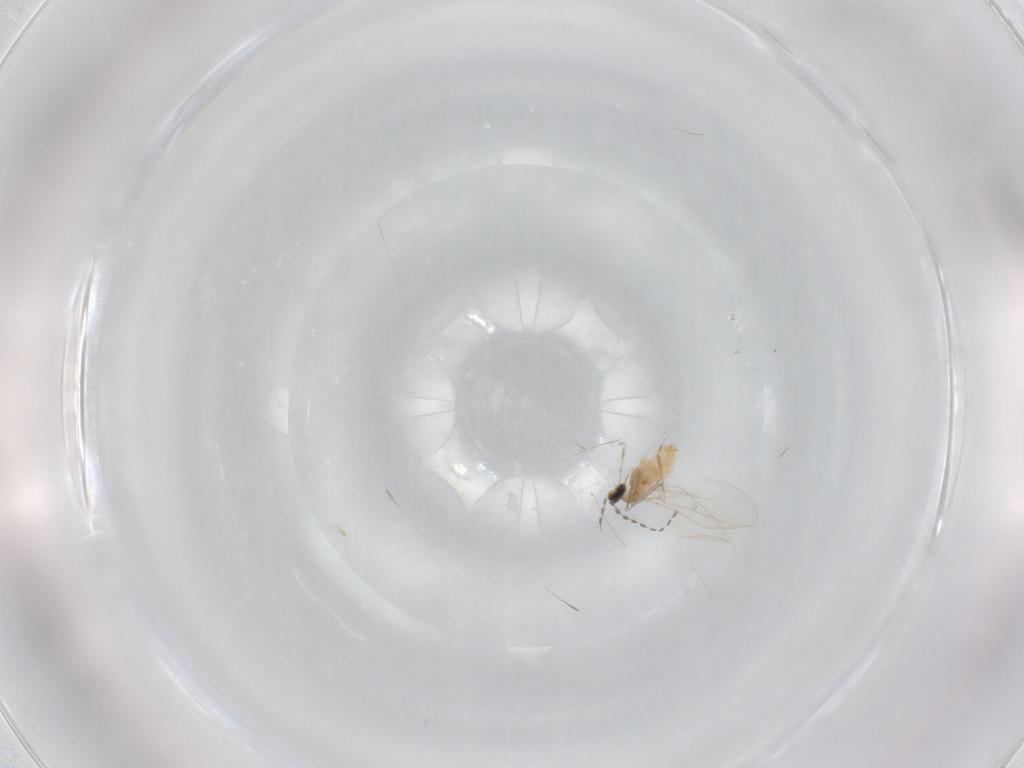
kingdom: Animalia
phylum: Arthropoda
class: Insecta
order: Diptera
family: Cecidomyiidae
